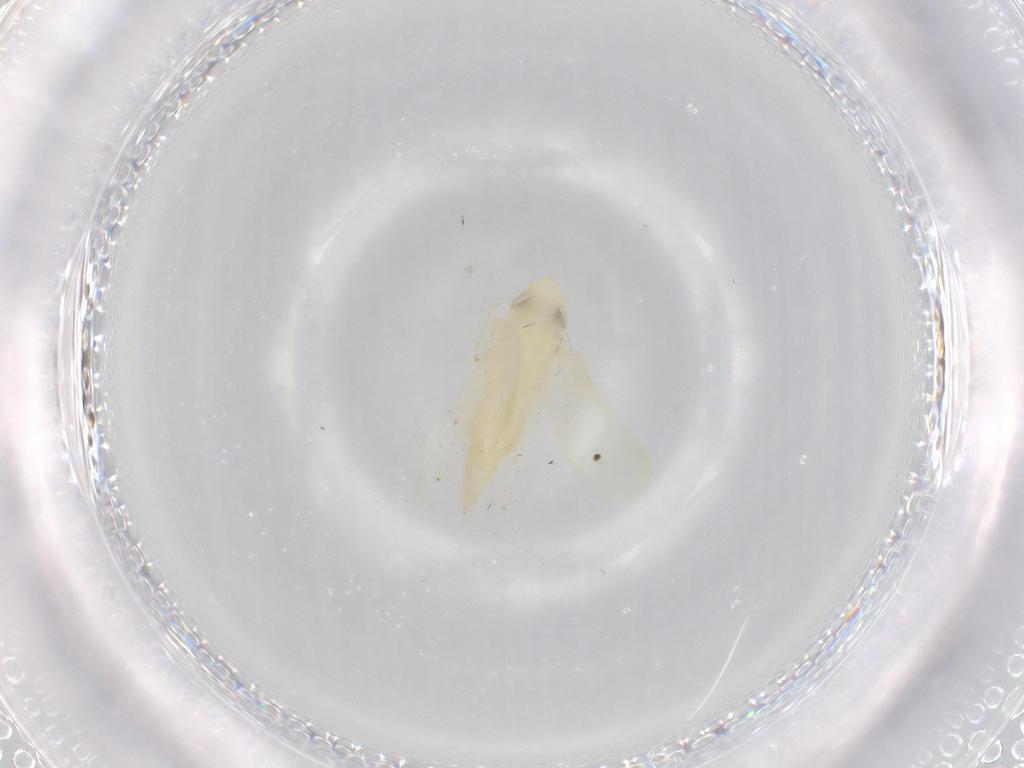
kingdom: Animalia
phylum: Arthropoda
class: Insecta
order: Hemiptera
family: Cicadellidae
